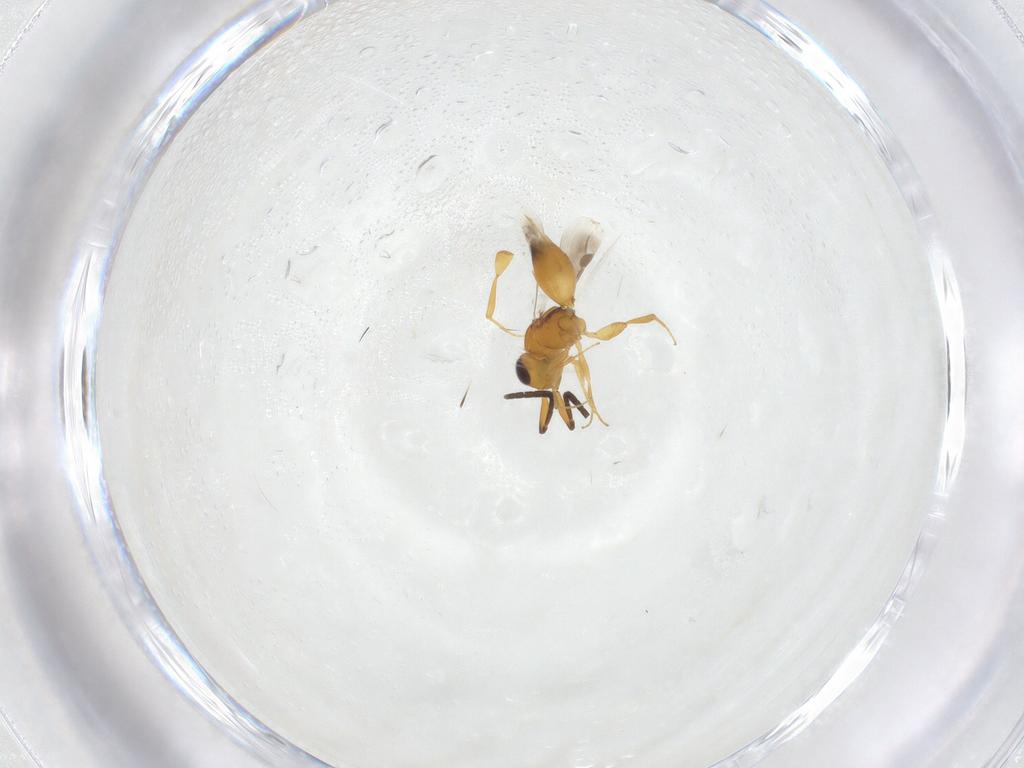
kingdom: Animalia
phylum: Arthropoda
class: Insecta
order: Hymenoptera
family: Megaspilidae
